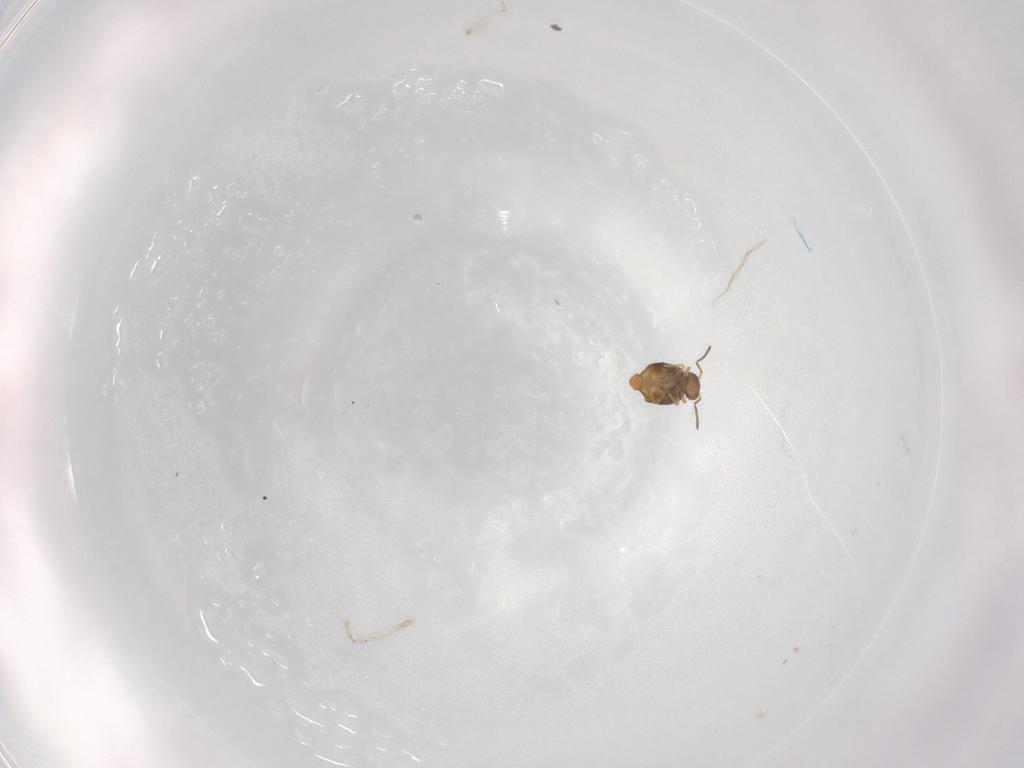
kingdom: Animalia
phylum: Arthropoda
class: Collembola
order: Symphypleona
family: Katiannidae
